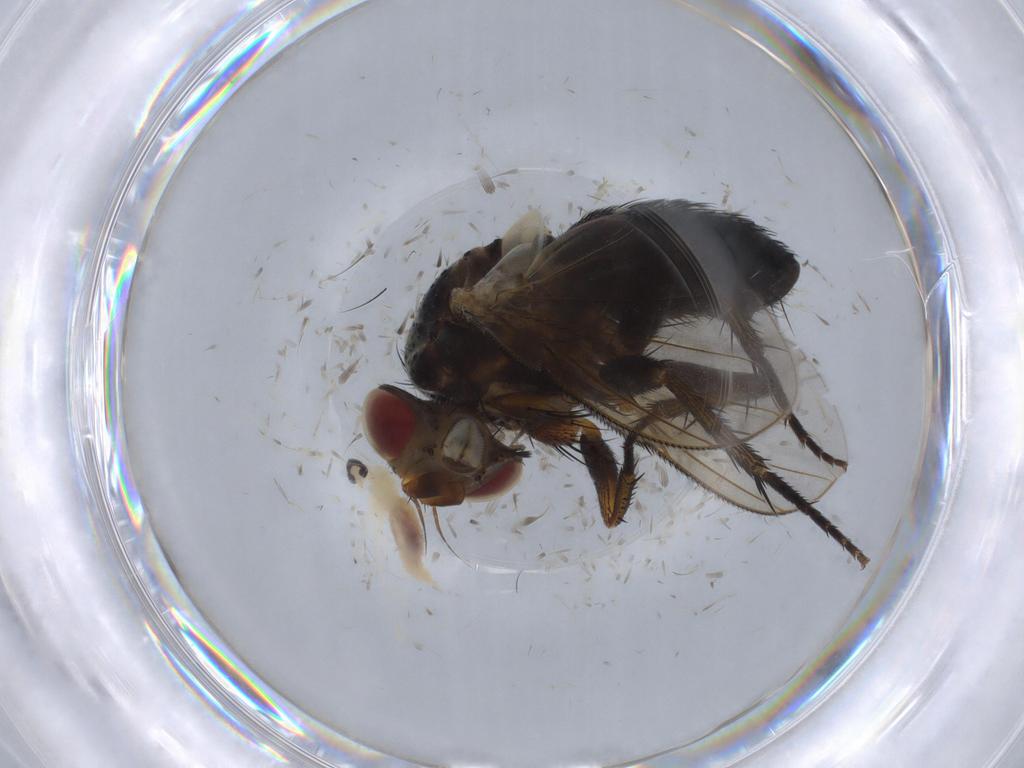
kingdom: Animalia
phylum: Arthropoda
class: Insecta
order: Diptera
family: Tachinidae
